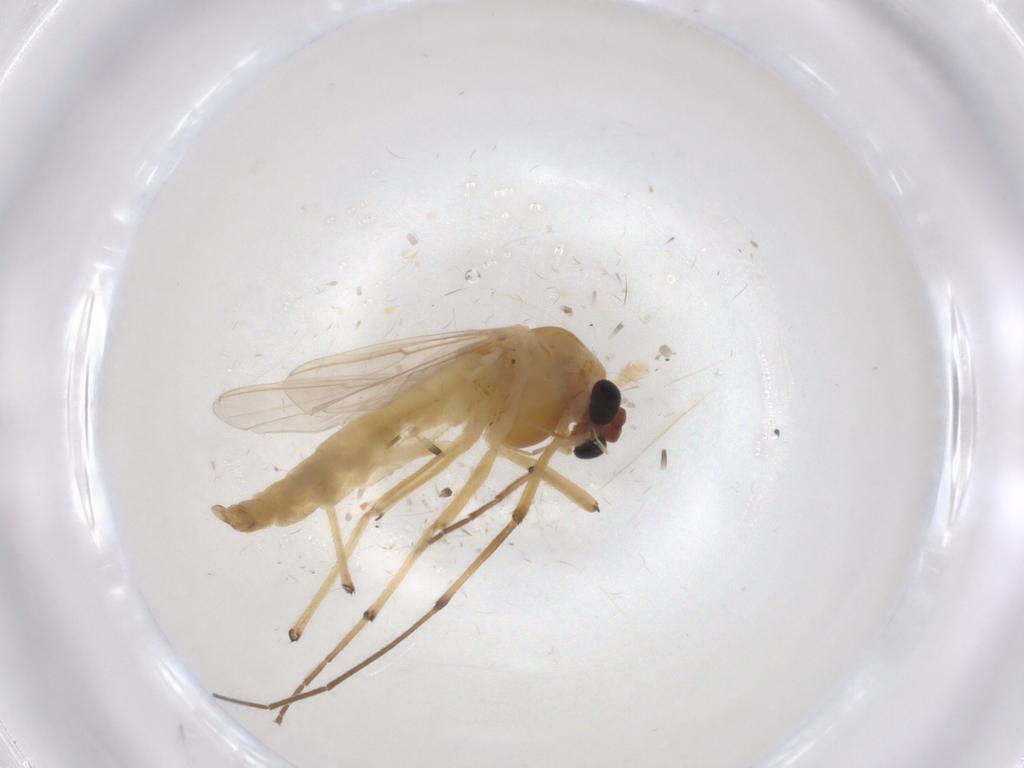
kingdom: Animalia
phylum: Arthropoda
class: Insecta
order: Diptera
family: Chironomidae
